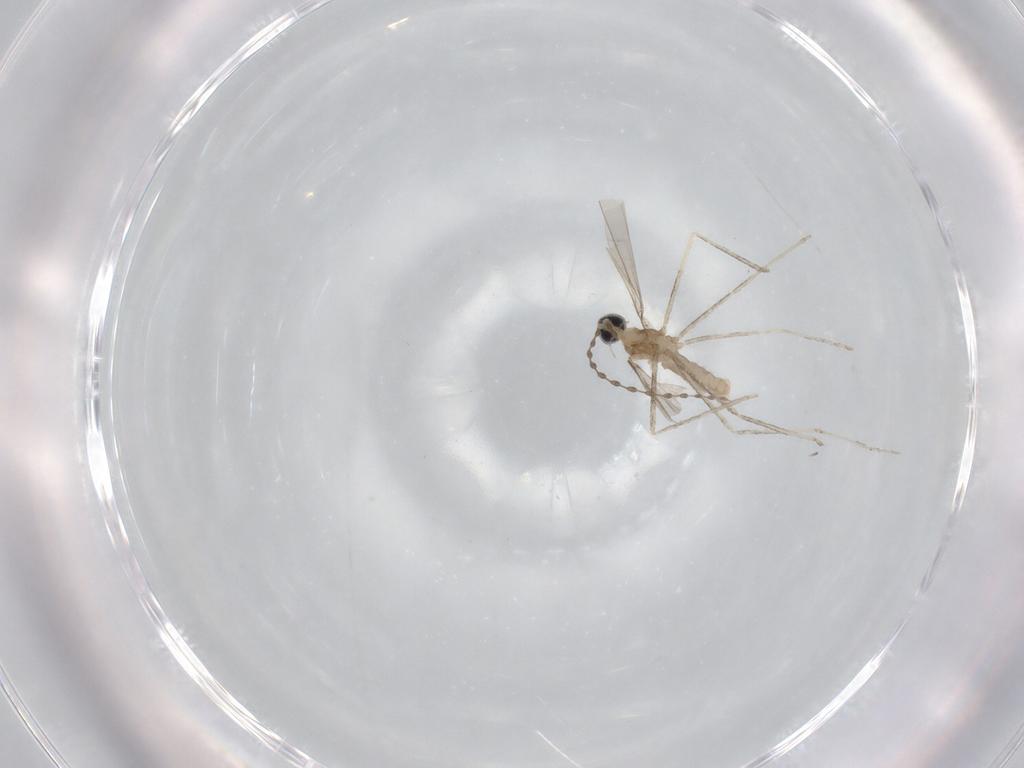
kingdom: Animalia
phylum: Arthropoda
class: Insecta
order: Diptera
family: Cecidomyiidae
